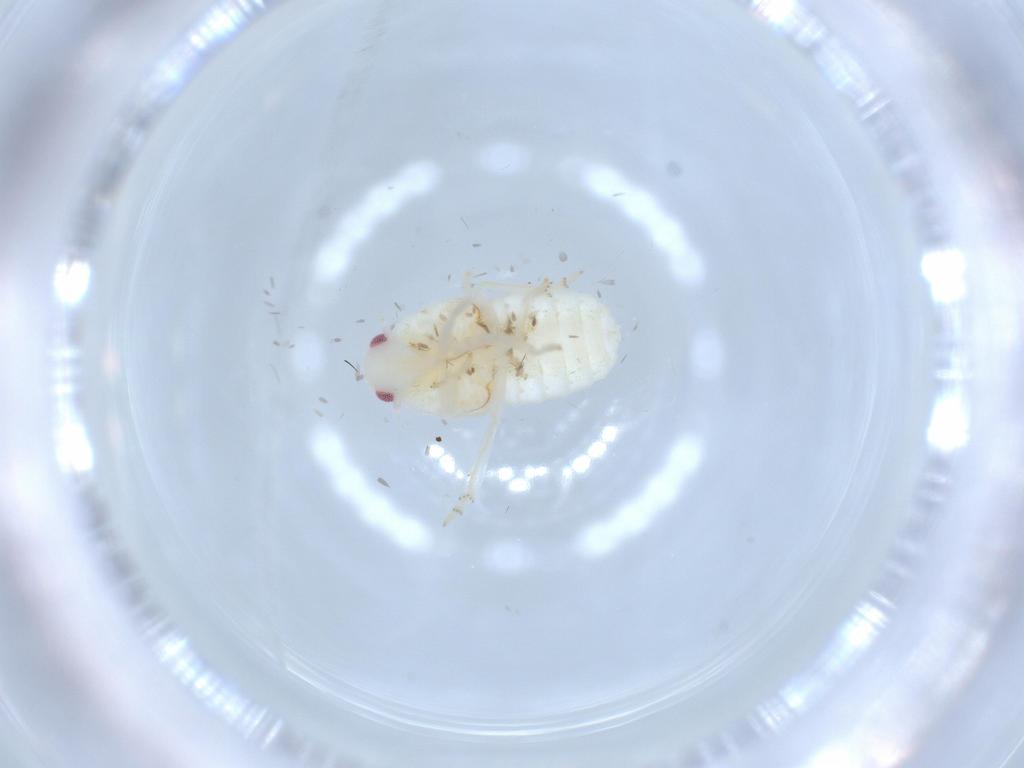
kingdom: Animalia
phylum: Arthropoda
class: Insecta
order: Hemiptera
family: Flatidae
